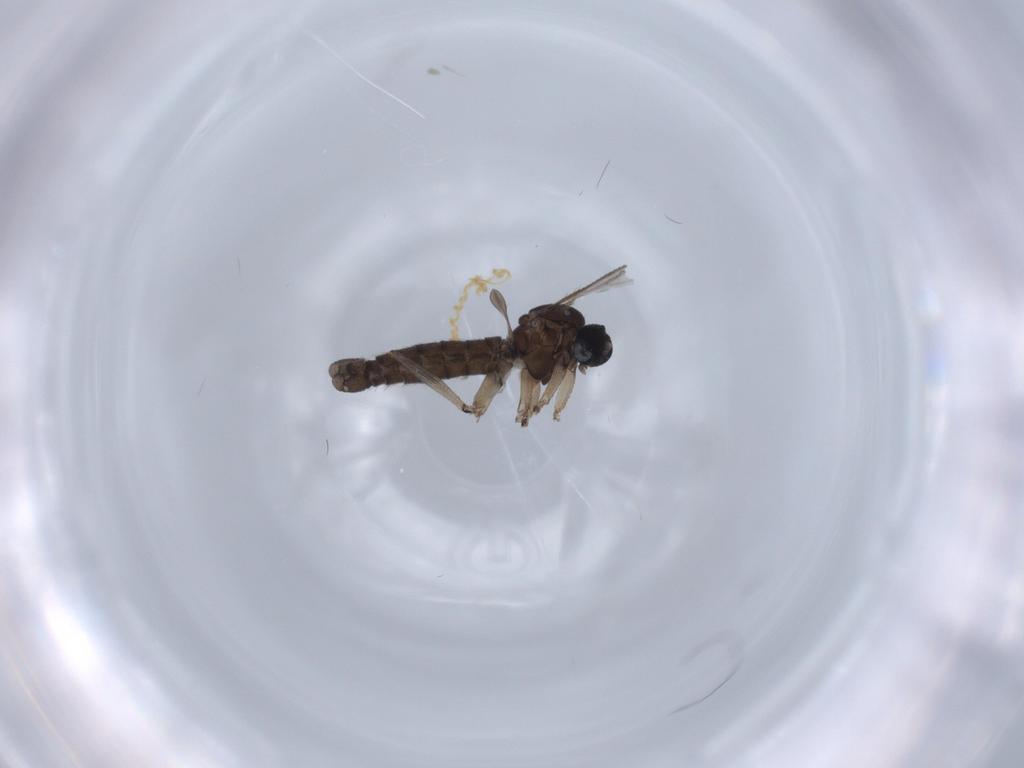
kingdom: Animalia
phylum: Arthropoda
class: Insecta
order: Diptera
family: Sciaridae
